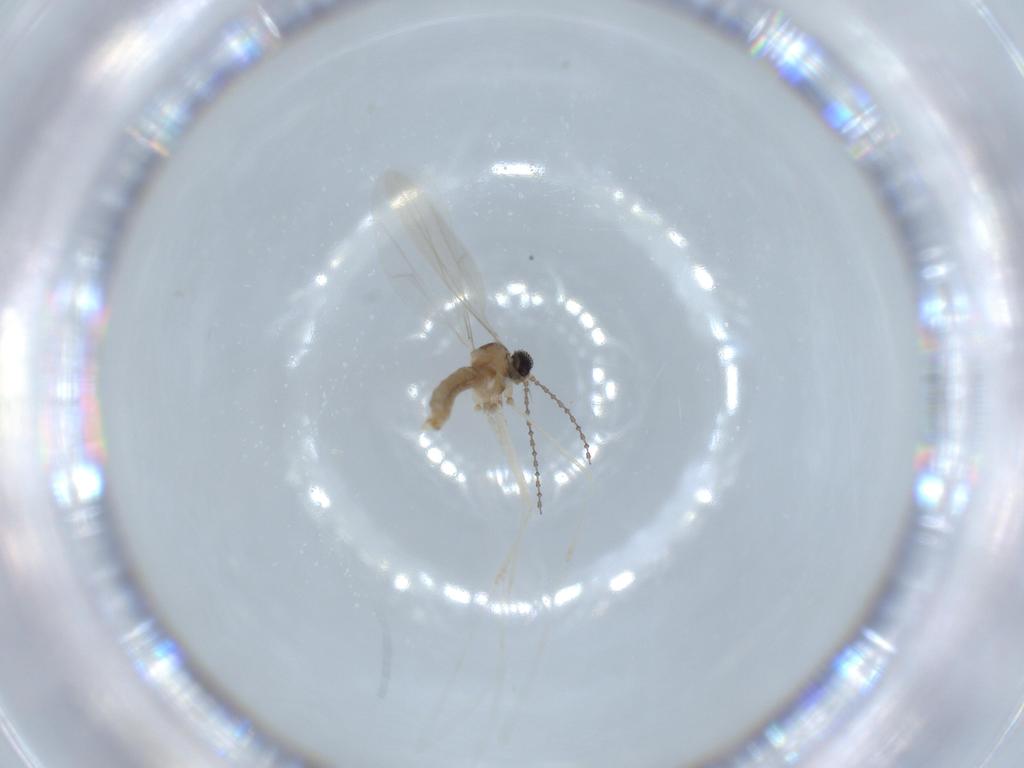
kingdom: Animalia
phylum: Arthropoda
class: Insecta
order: Diptera
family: Cecidomyiidae
